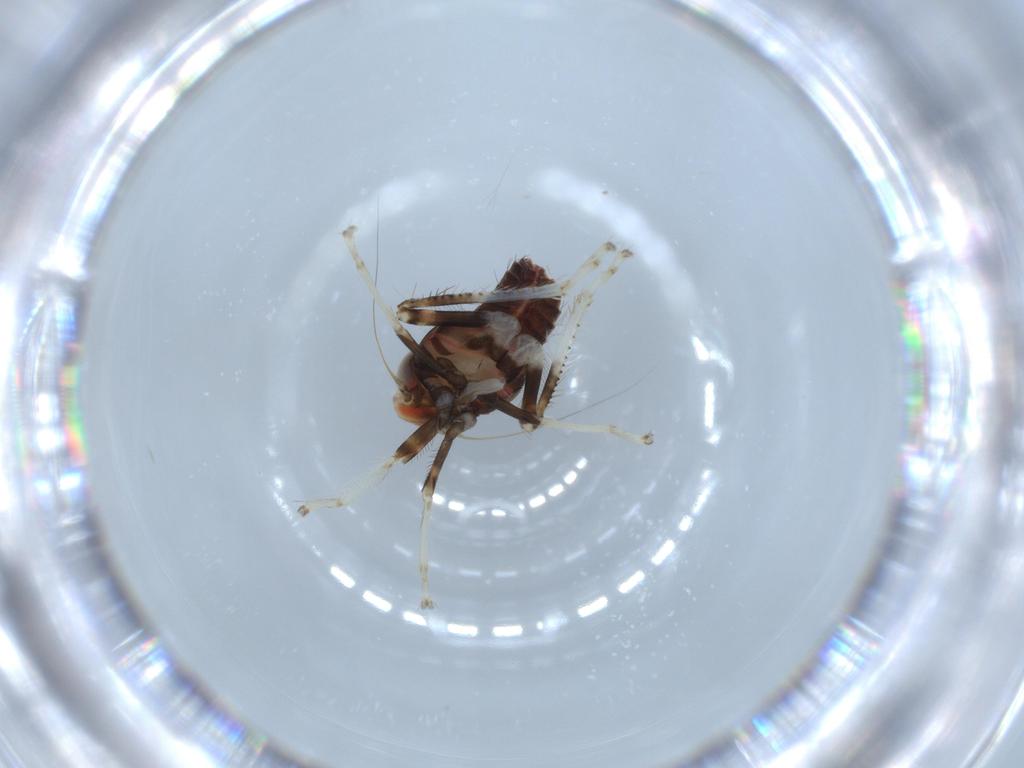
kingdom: Animalia
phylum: Arthropoda
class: Insecta
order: Hemiptera
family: Cicadellidae
